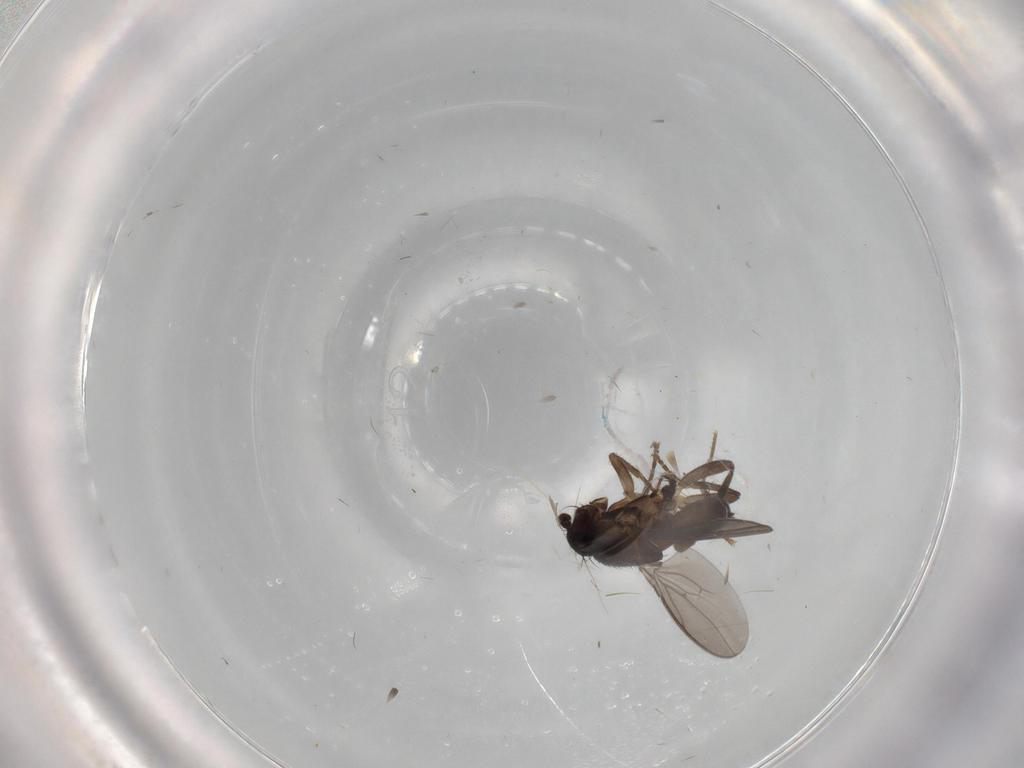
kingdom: Animalia
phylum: Arthropoda
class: Insecta
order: Diptera
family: Sphaeroceridae
